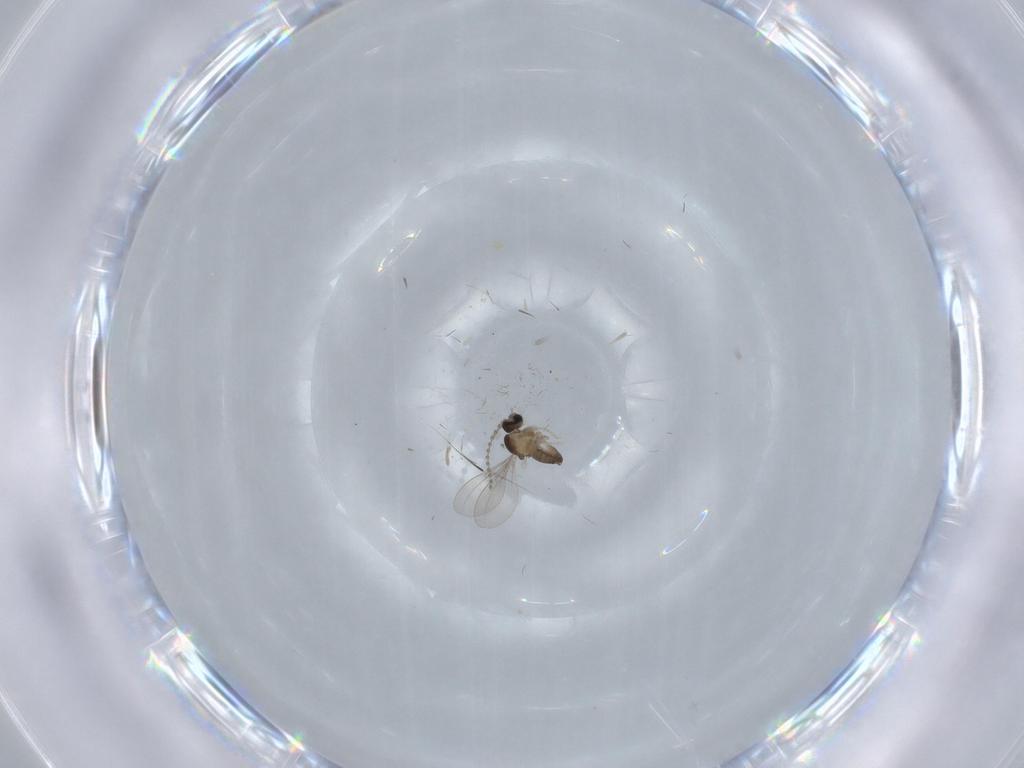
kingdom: Animalia
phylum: Arthropoda
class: Insecta
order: Diptera
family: Cecidomyiidae
